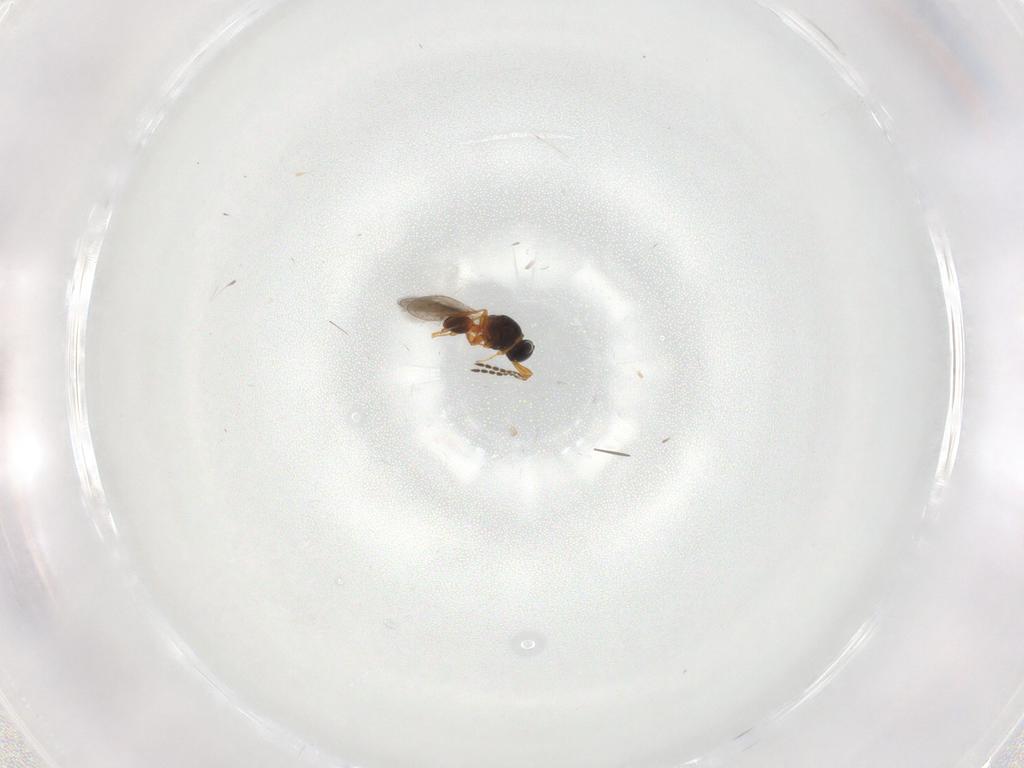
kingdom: Animalia
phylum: Arthropoda
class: Insecta
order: Hymenoptera
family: Platygastridae
